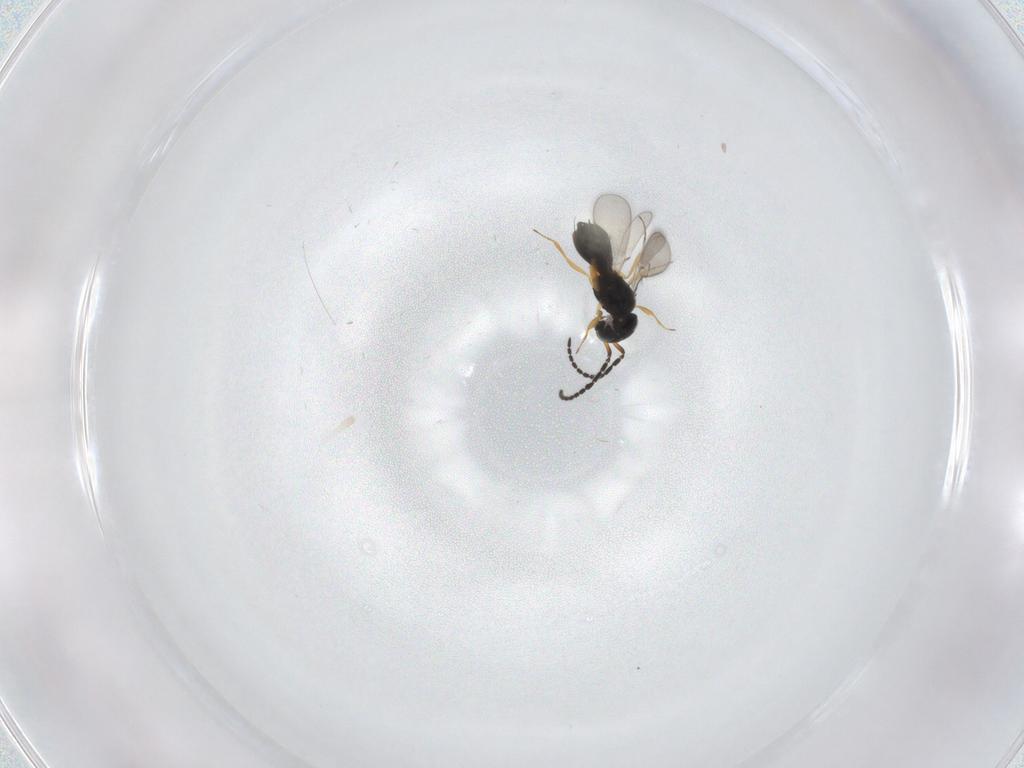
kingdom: Animalia
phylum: Arthropoda
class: Insecta
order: Hymenoptera
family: Scelionidae
